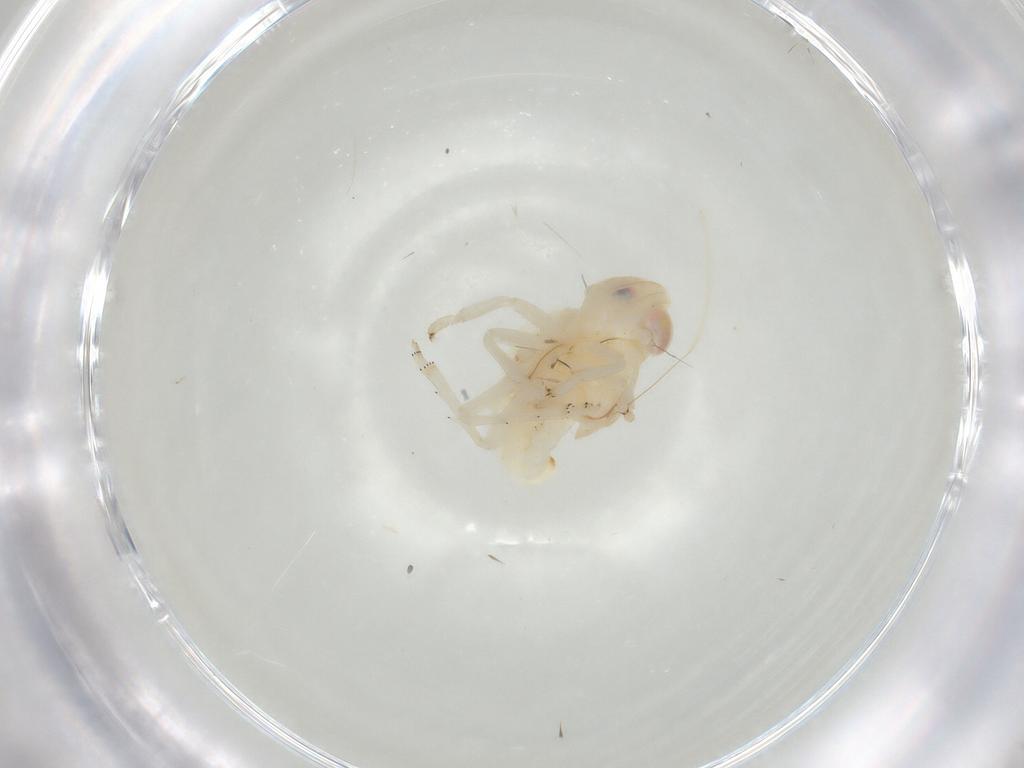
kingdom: Animalia
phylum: Arthropoda
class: Insecta
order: Hemiptera
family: Nogodinidae
